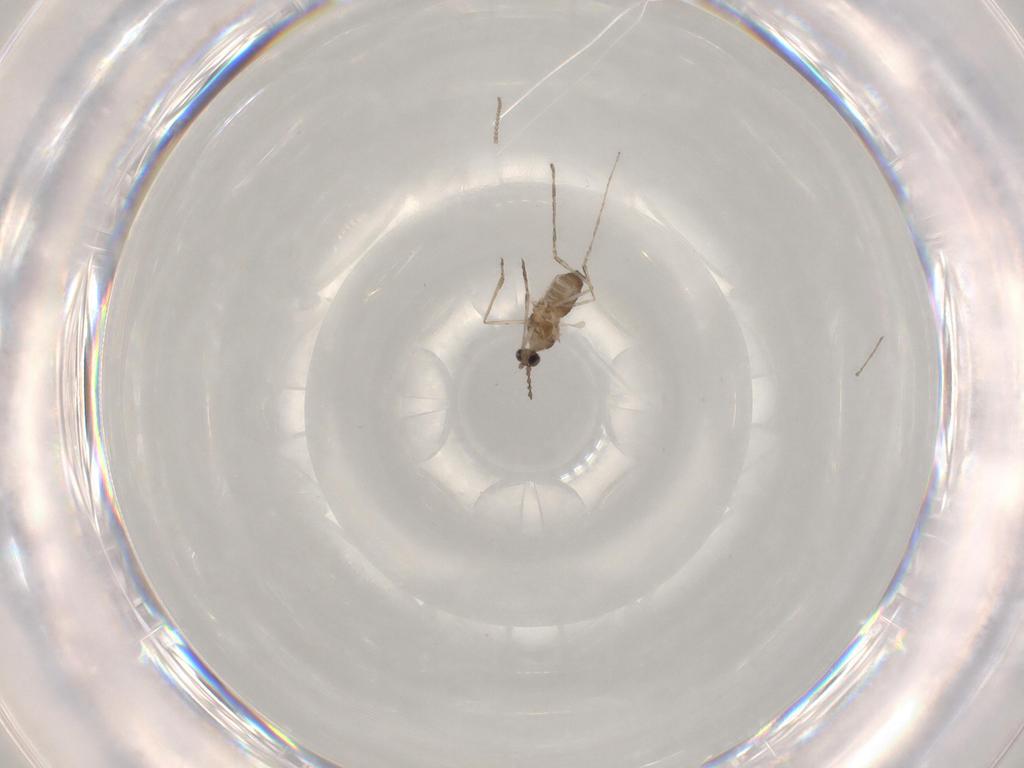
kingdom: Animalia
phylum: Arthropoda
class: Insecta
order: Diptera
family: Cecidomyiidae
